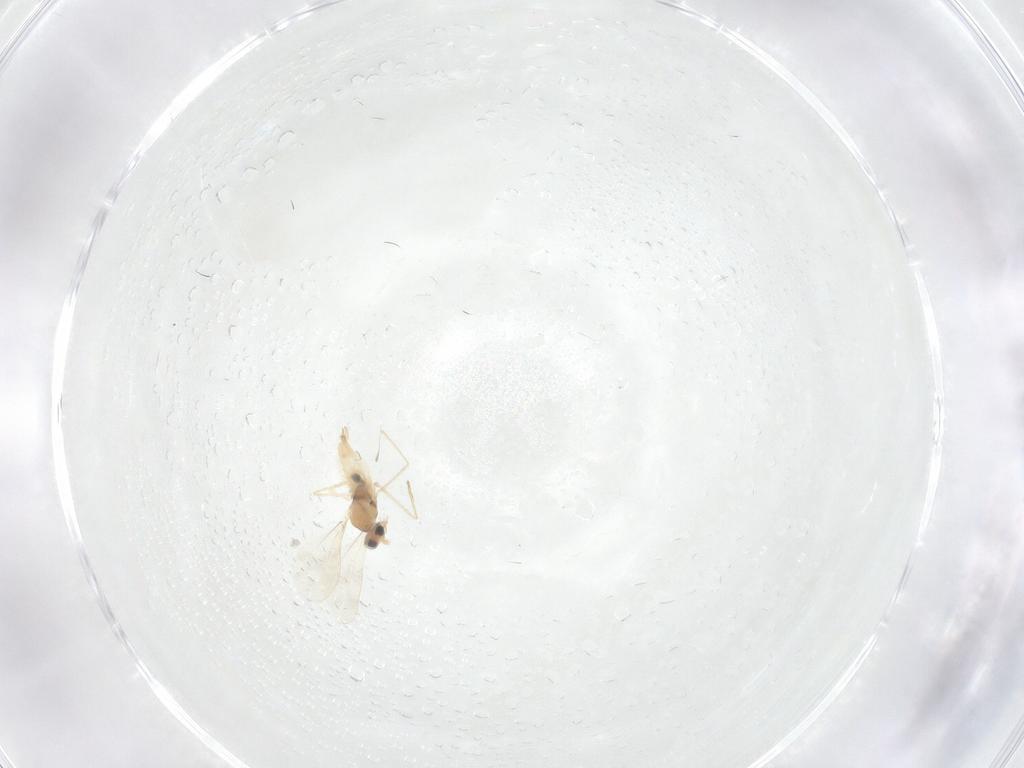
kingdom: Animalia
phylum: Arthropoda
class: Insecta
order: Diptera
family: Cecidomyiidae
